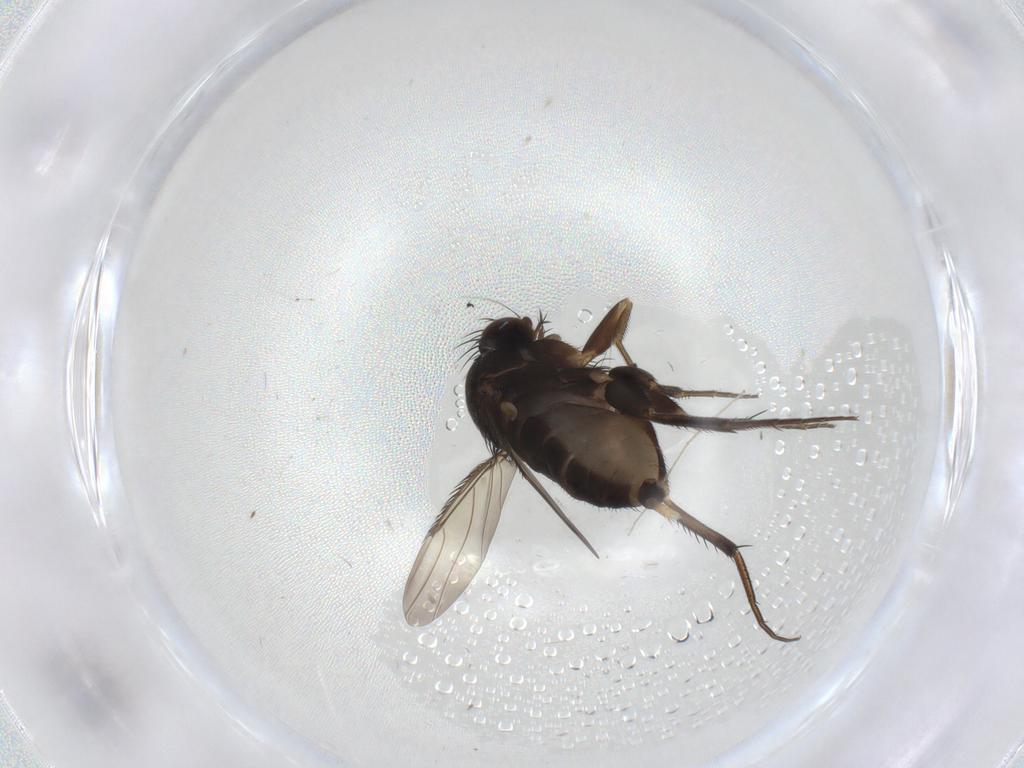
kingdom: Animalia
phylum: Arthropoda
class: Insecta
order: Diptera
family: Phoridae
